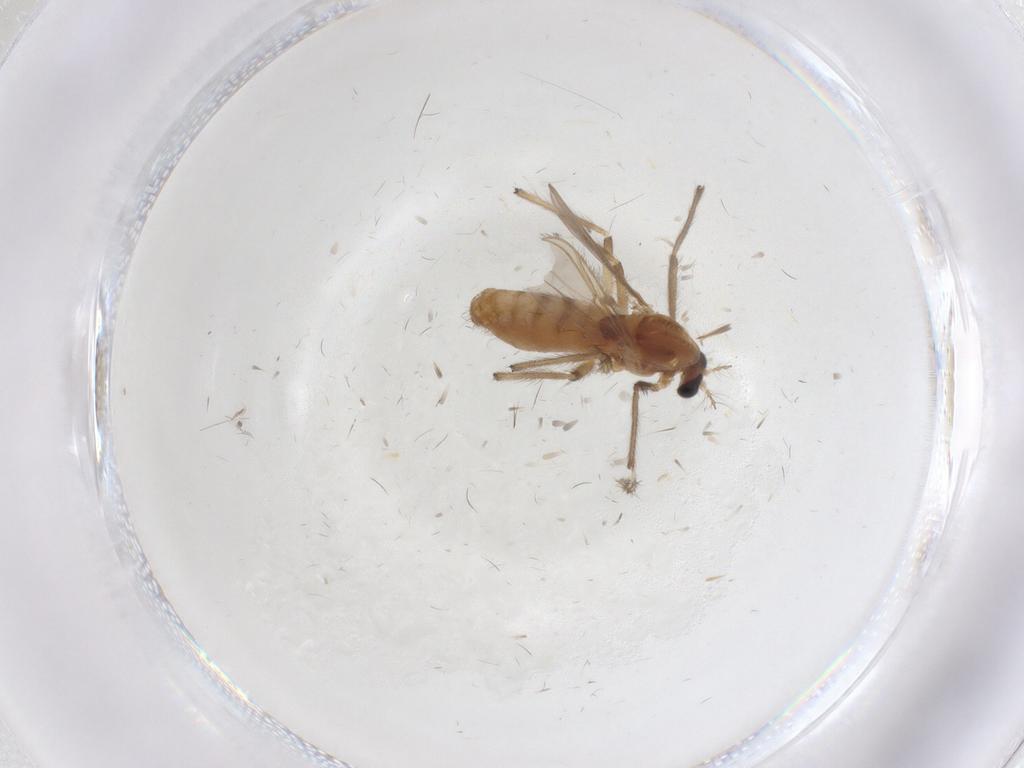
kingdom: Animalia
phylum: Arthropoda
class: Insecta
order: Diptera
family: Chironomidae
